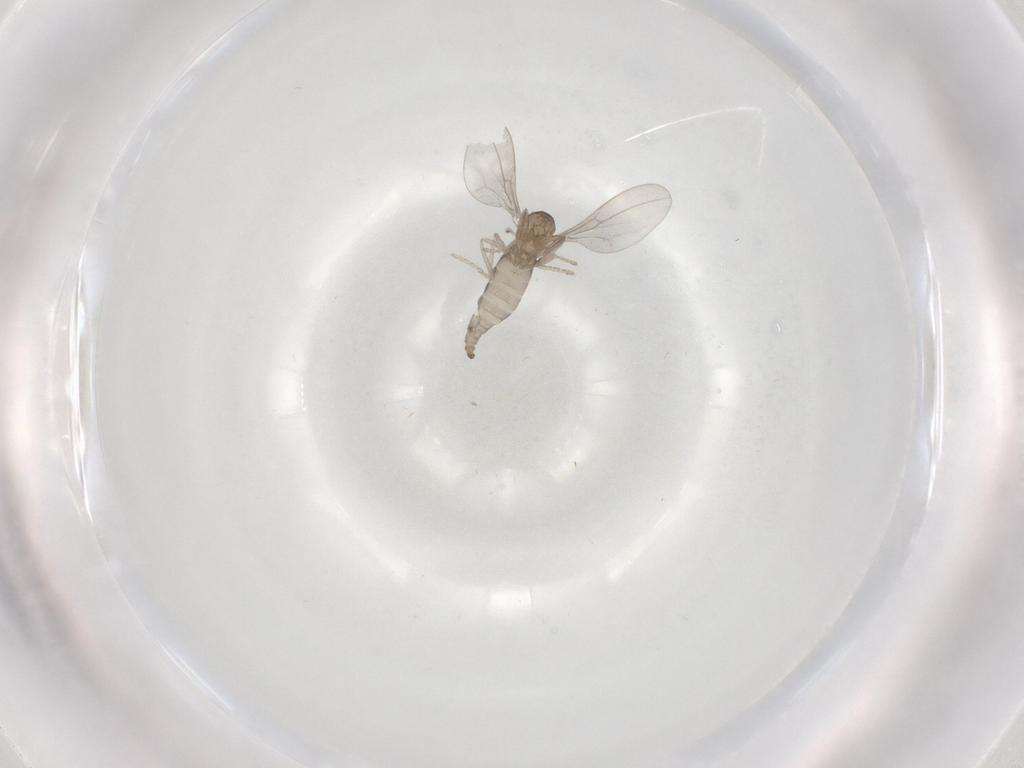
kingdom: Animalia
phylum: Arthropoda
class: Insecta
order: Diptera
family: Cecidomyiidae
